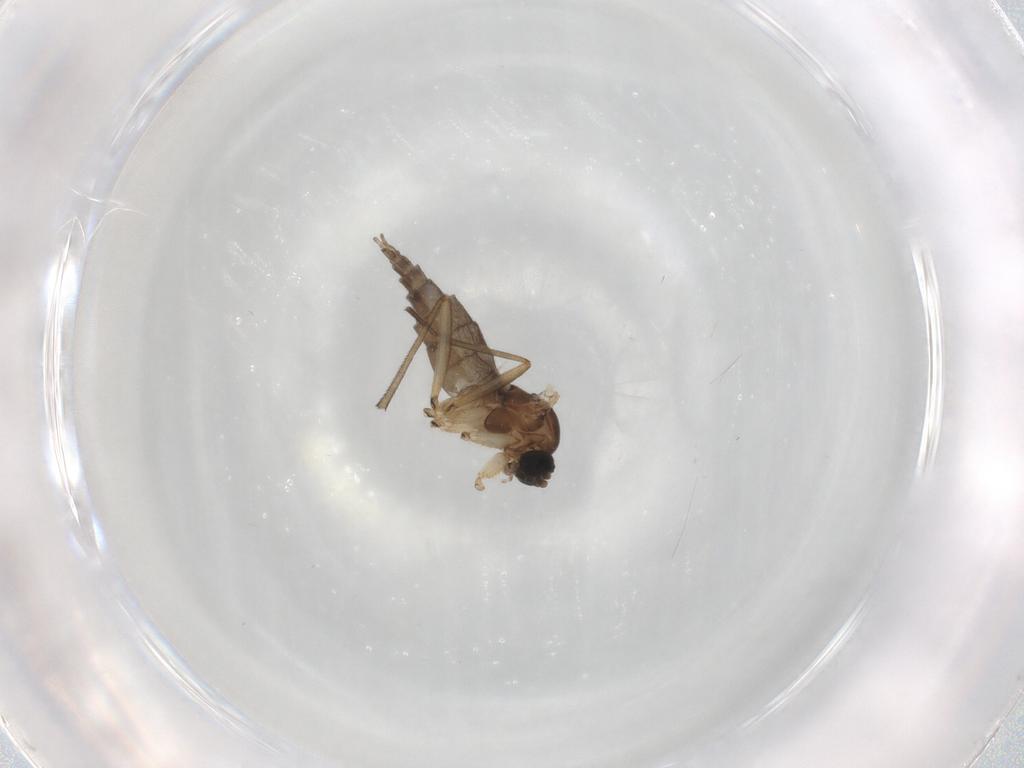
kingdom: Animalia
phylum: Arthropoda
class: Insecta
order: Diptera
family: Sciaridae
